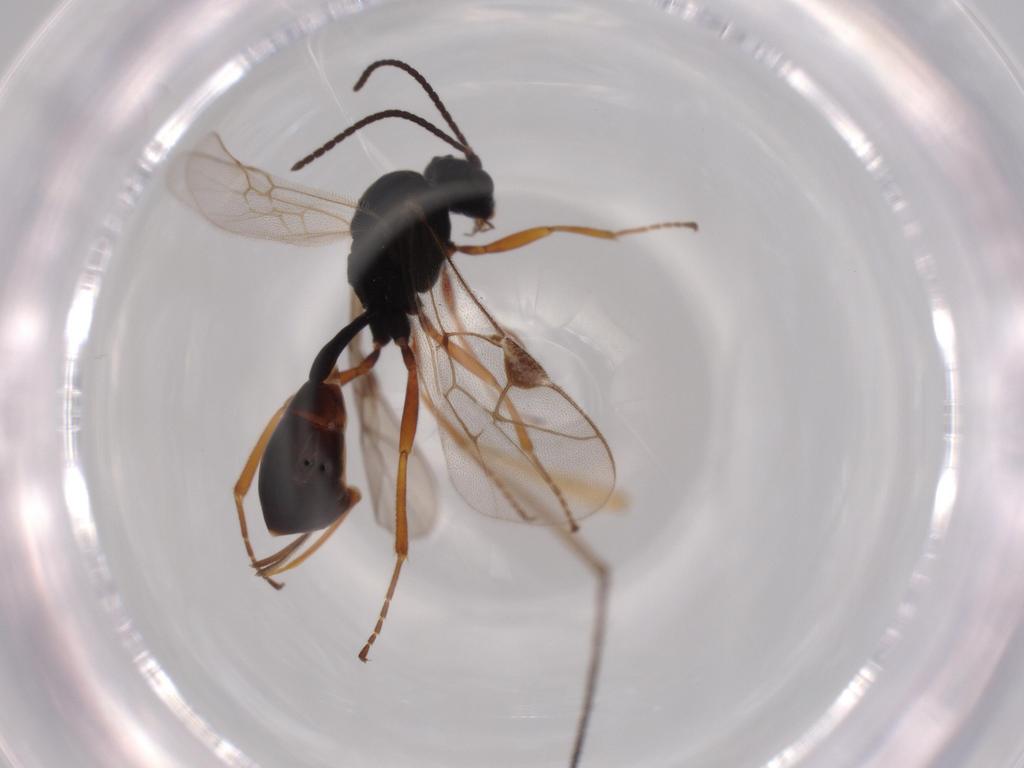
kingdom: Animalia
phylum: Arthropoda
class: Insecta
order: Hymenoptera
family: Ichneumonidae
